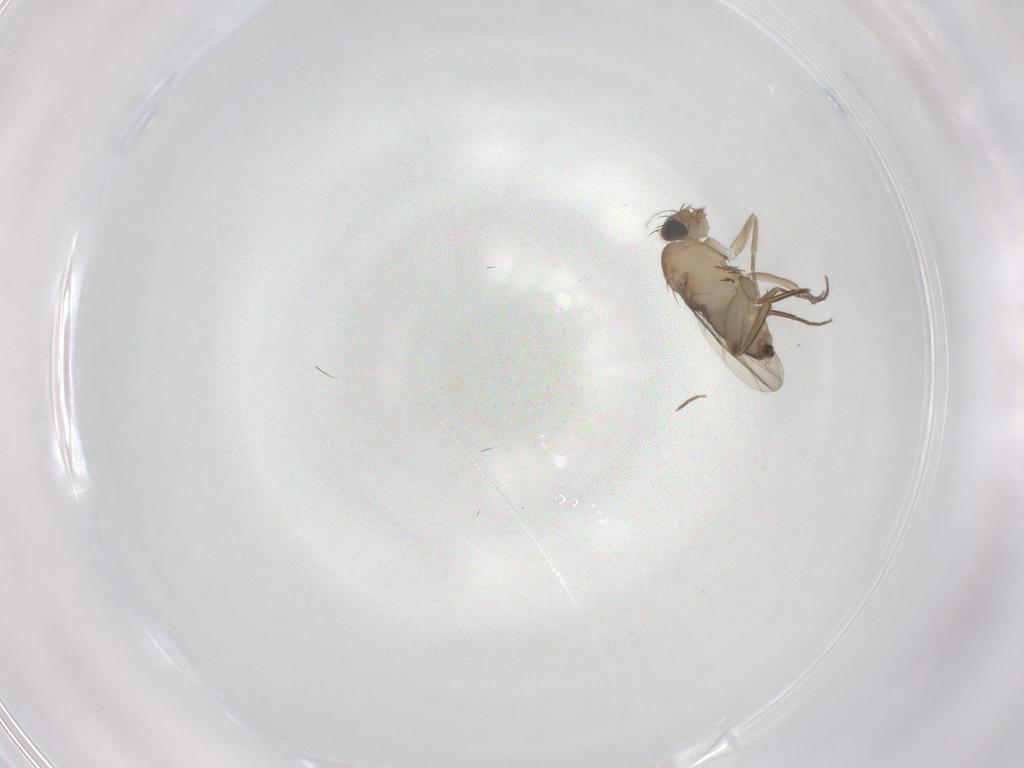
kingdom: Animalia
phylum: Arthropoda
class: Insecta
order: Diptera
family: Phoridae
